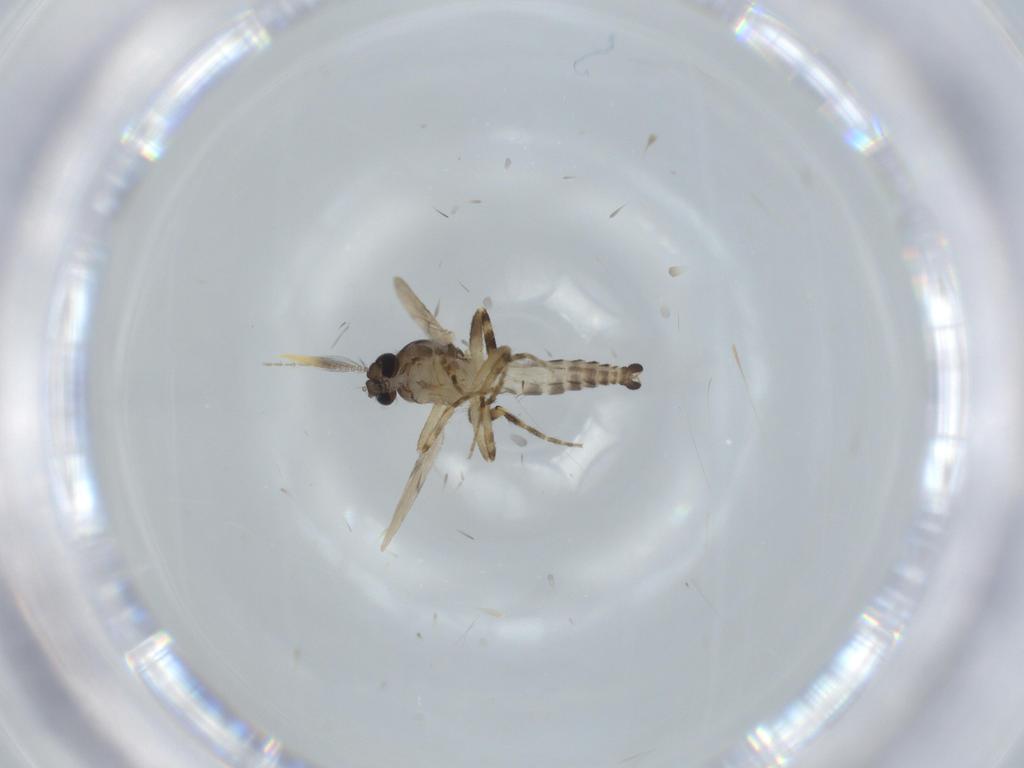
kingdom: Animalia
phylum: Arthropoda
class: Insecta
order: Diptera
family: Ceratopogonidae
